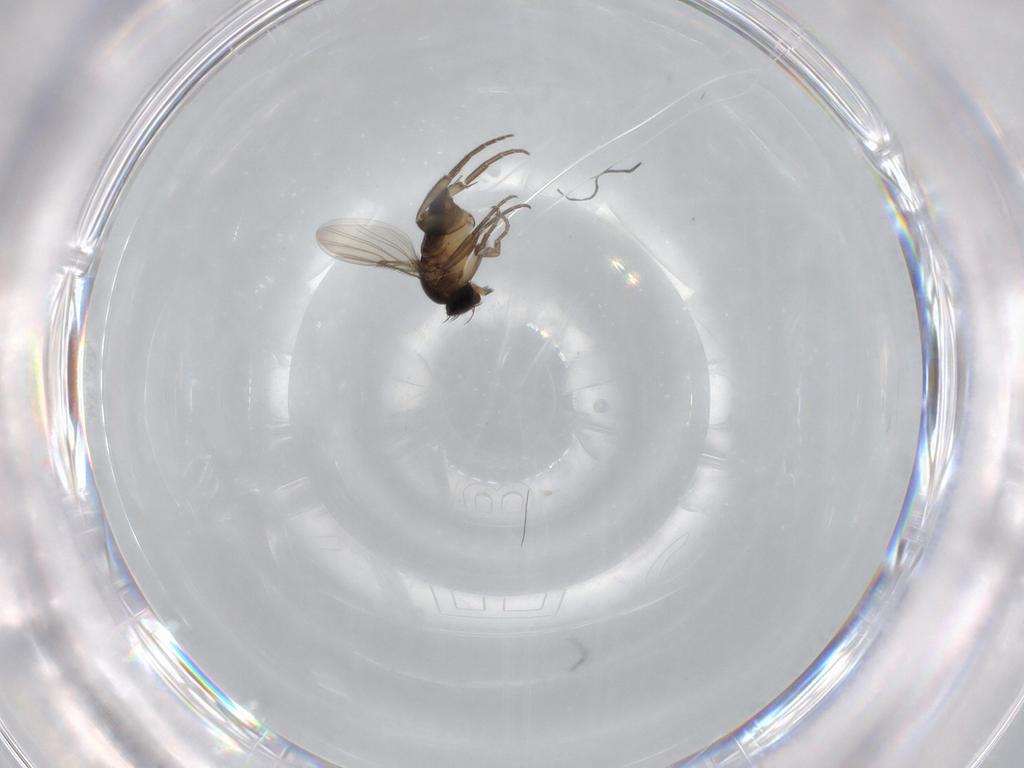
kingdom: Animalia
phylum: Arthropoda
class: Insecta
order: Diptera
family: Phoridae
